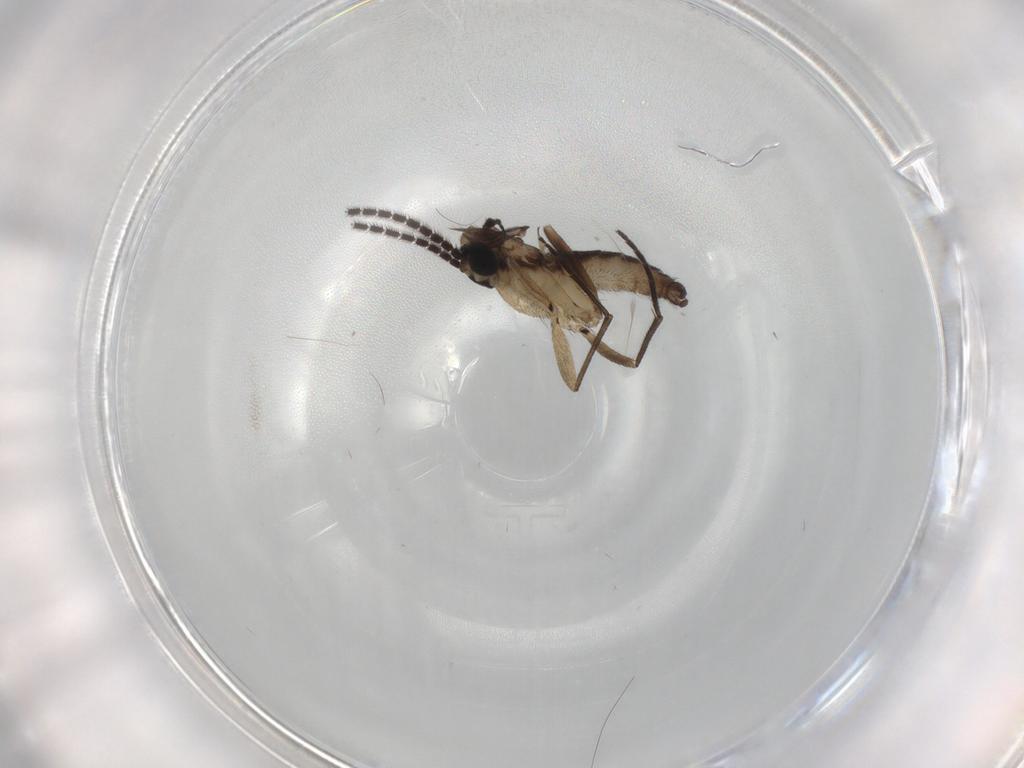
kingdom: Animalia
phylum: Arthropoda
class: Insecta
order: Diptera
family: Sciaridae
